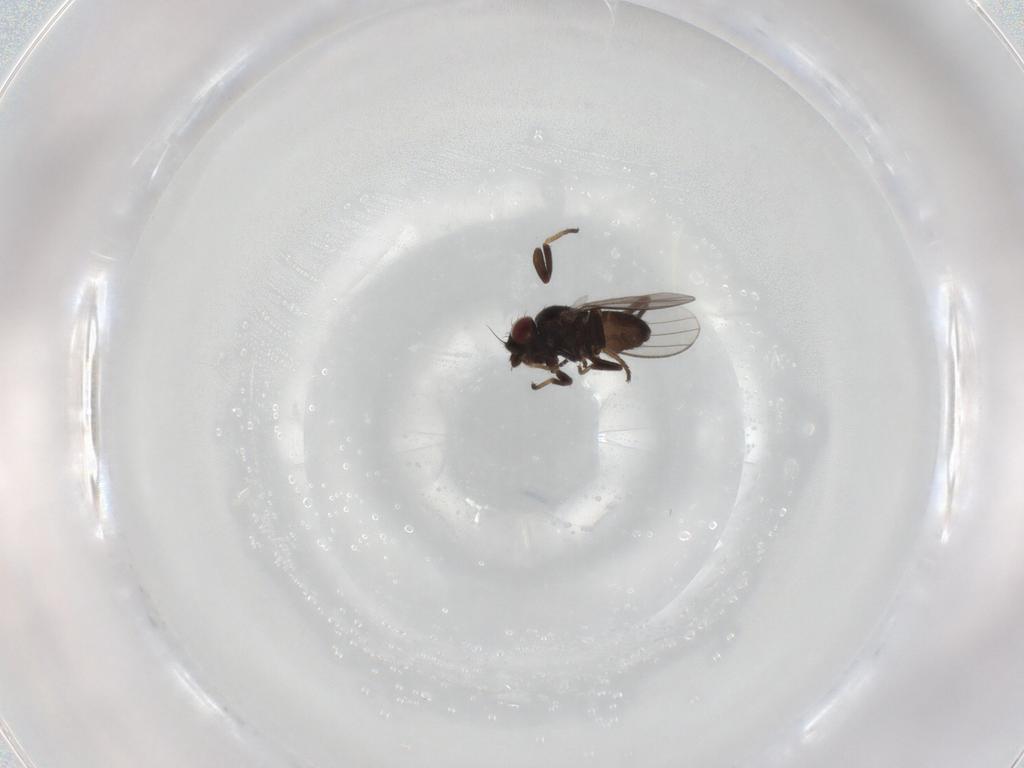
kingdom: Animalia
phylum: Arthropoda
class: Insecta
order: Diptera
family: Milichiidae
